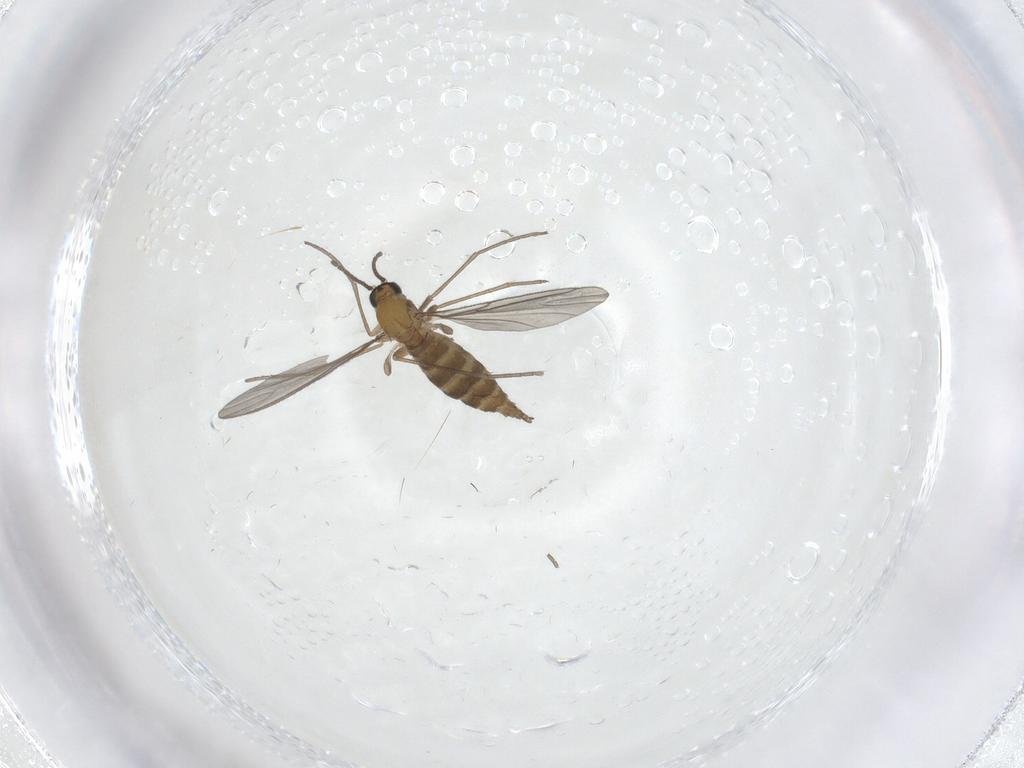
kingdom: Animalia
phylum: Arthropoda
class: Insecta
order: Diptera
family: Sciaridae
